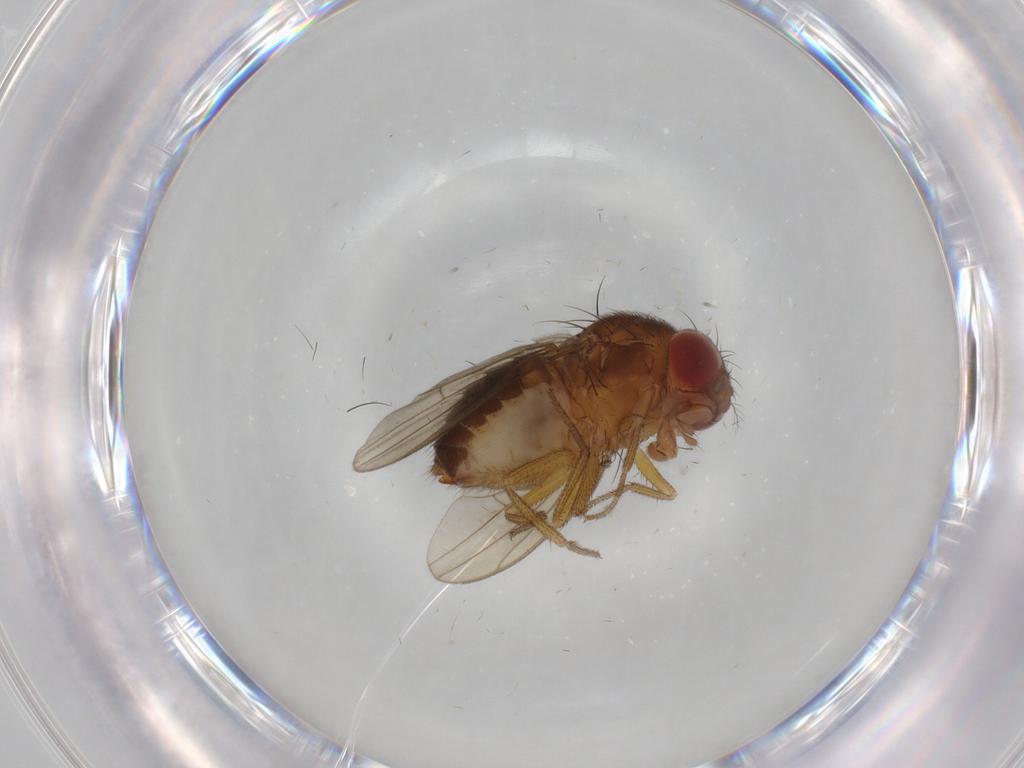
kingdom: Animalia
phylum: Arthropoda
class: Insecta
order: Diptera
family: Drosophilidae
